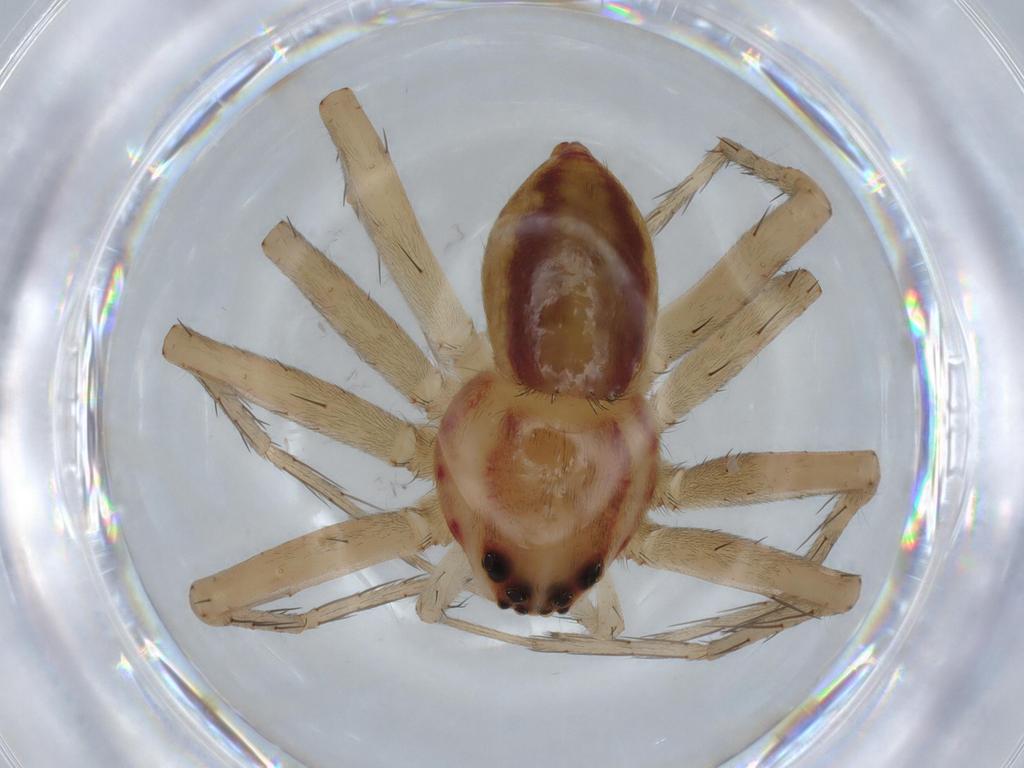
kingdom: Animalia
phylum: Arthropoda
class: Arachnida
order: Araneae
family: Pisauridae
